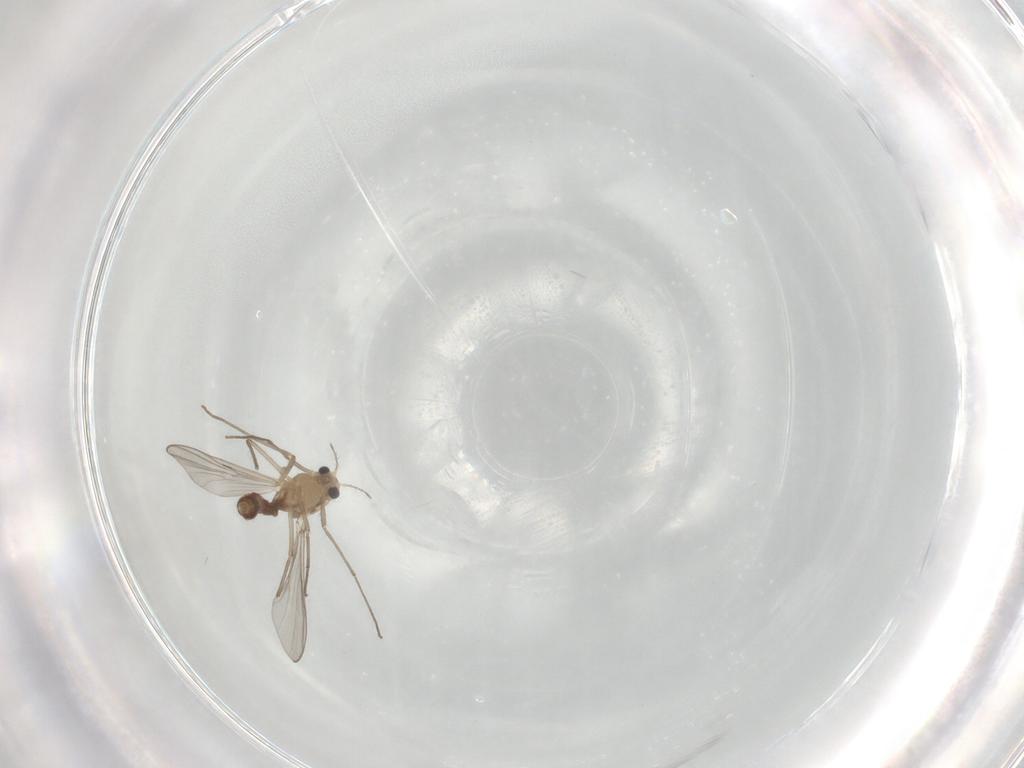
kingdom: Animalia
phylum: Arthropoda
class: Insecta
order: Diptera
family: Chironomidae
